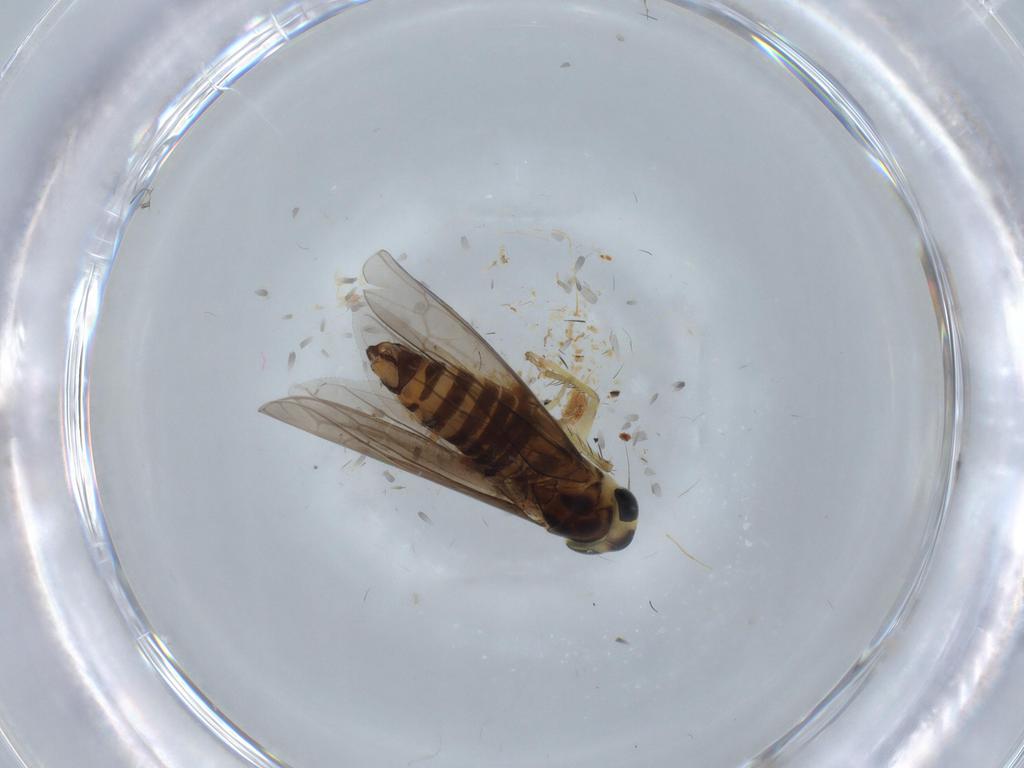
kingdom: Animalia
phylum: Arthropoda
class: Insecta
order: Hemiptera
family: Cicadellidae
